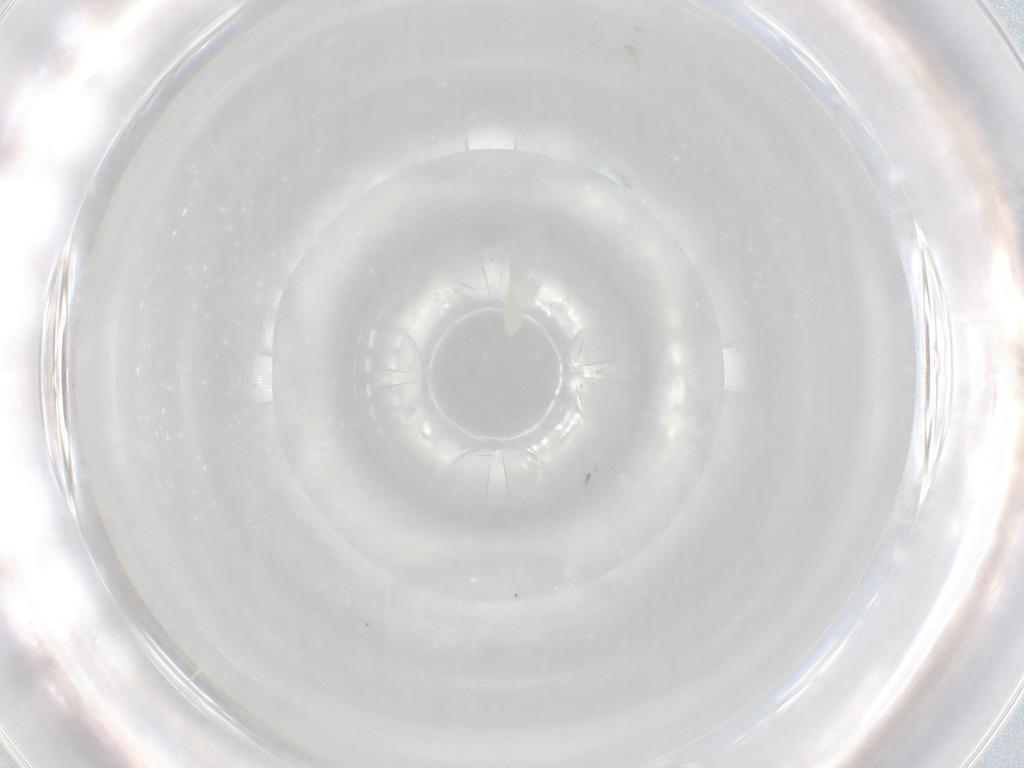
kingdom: Animalia
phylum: Arthropoda
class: Arachnida
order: Trombidiformes
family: Eupodidae
